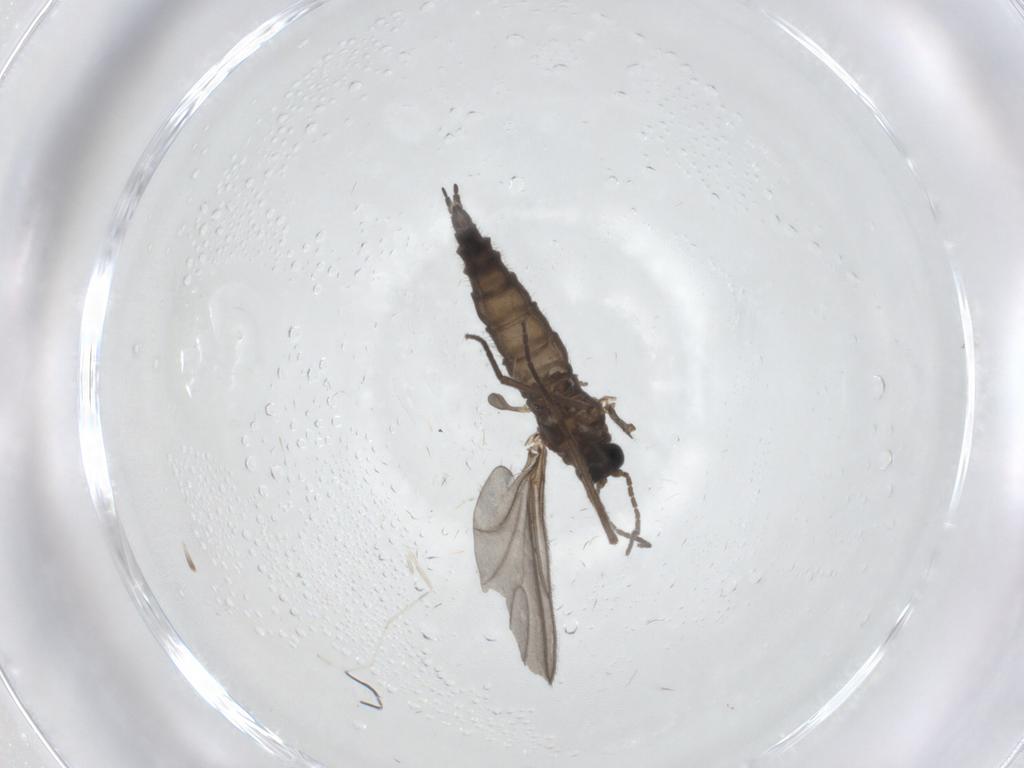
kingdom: Animalia
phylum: Arthropoda
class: Insecta
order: Diptera
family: Sciaridae
